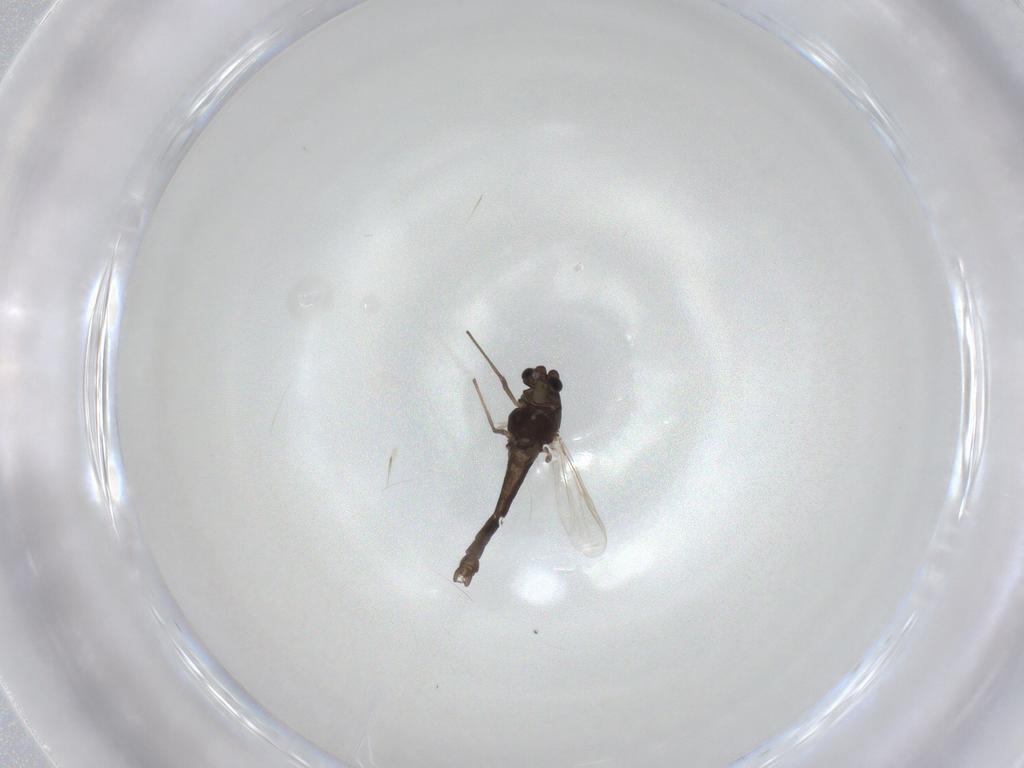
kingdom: Animalia
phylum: Arthropoda
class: Insecta
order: Diptera
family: Chironomidae
